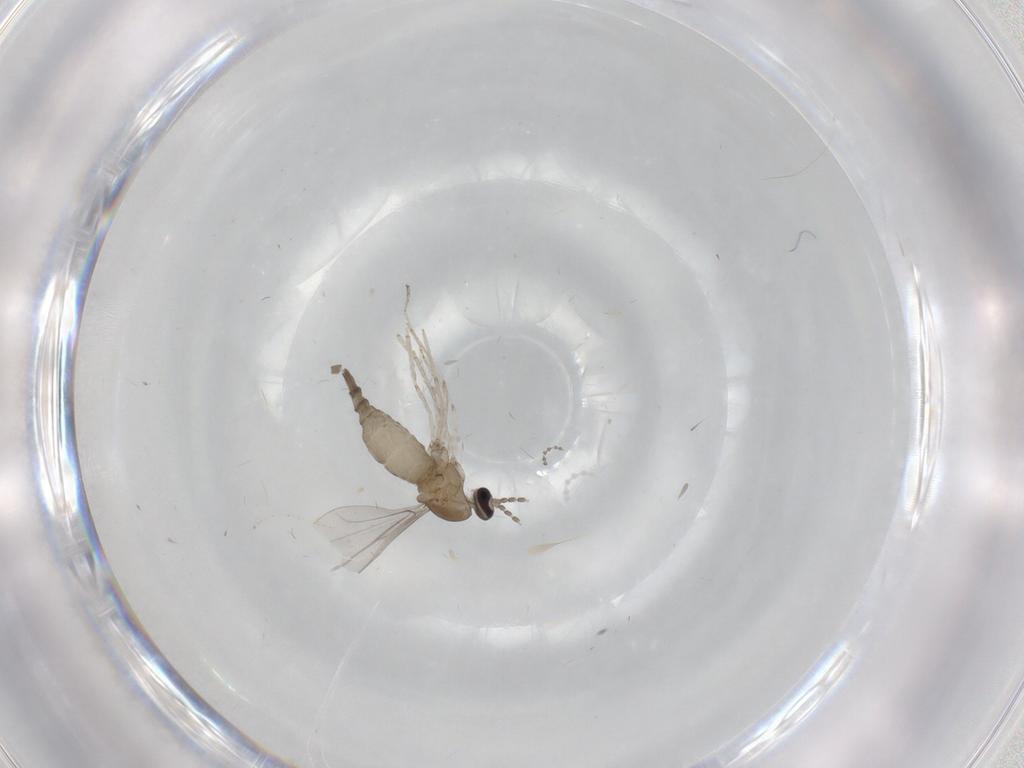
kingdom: Animalia
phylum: Arthropoda
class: Insecta
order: Diptera
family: Cecidomyiidae
